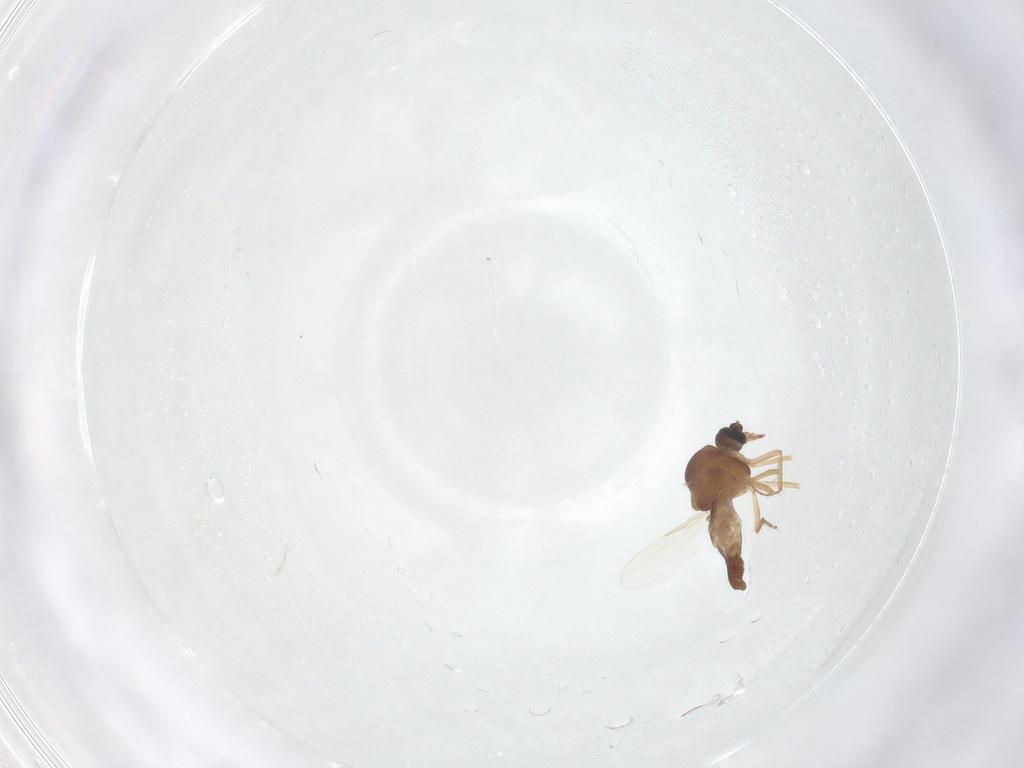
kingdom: Animalia
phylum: Arthropoda
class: Insecta
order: Diptera
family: Ceratopogonidae
